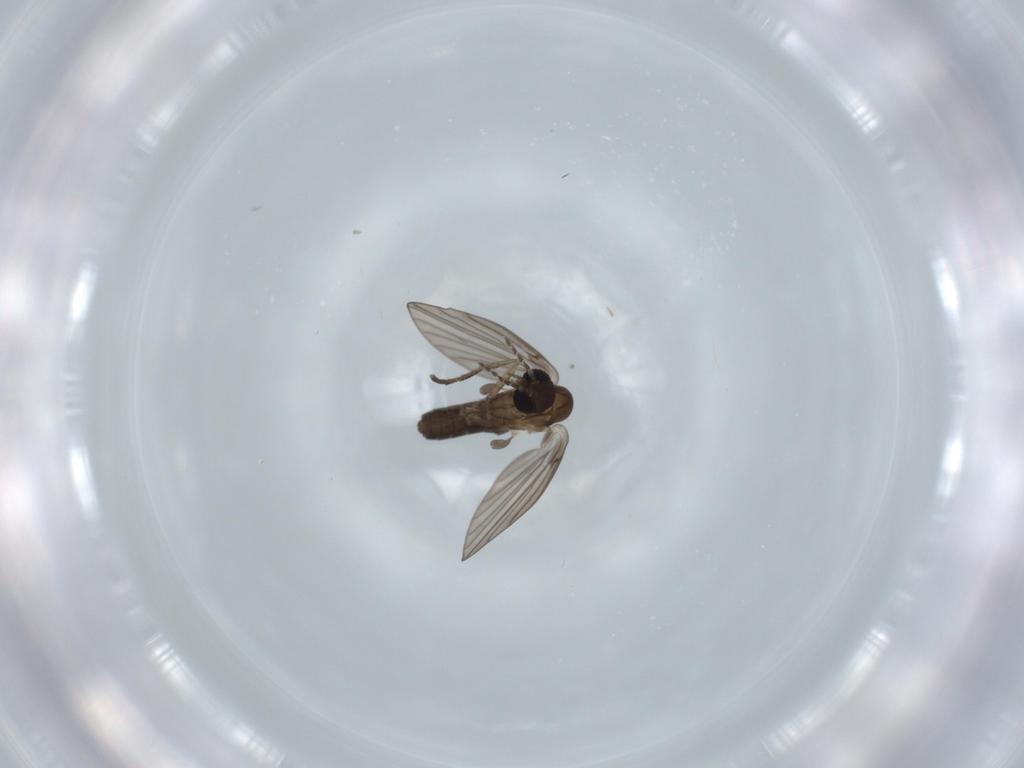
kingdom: Animalia
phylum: Arthropoda
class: Insecta
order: Diptera
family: Psychodidae
